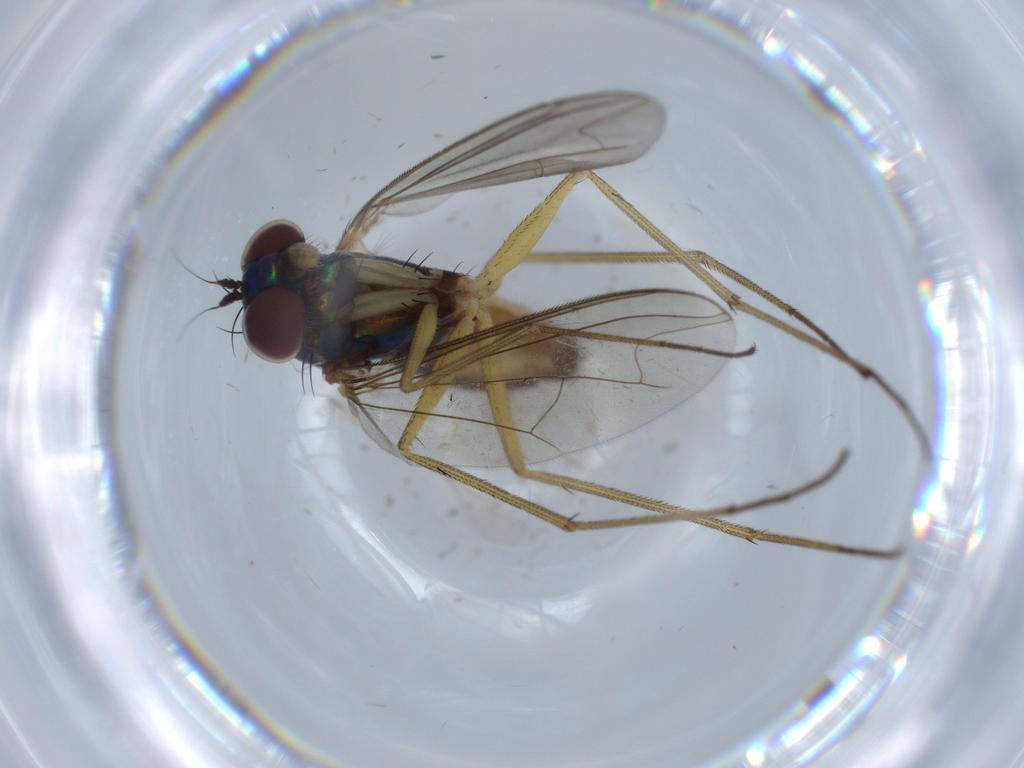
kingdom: Animalia
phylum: Arthropoda
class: Insecta
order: Diptera
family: Dolichopodidae
